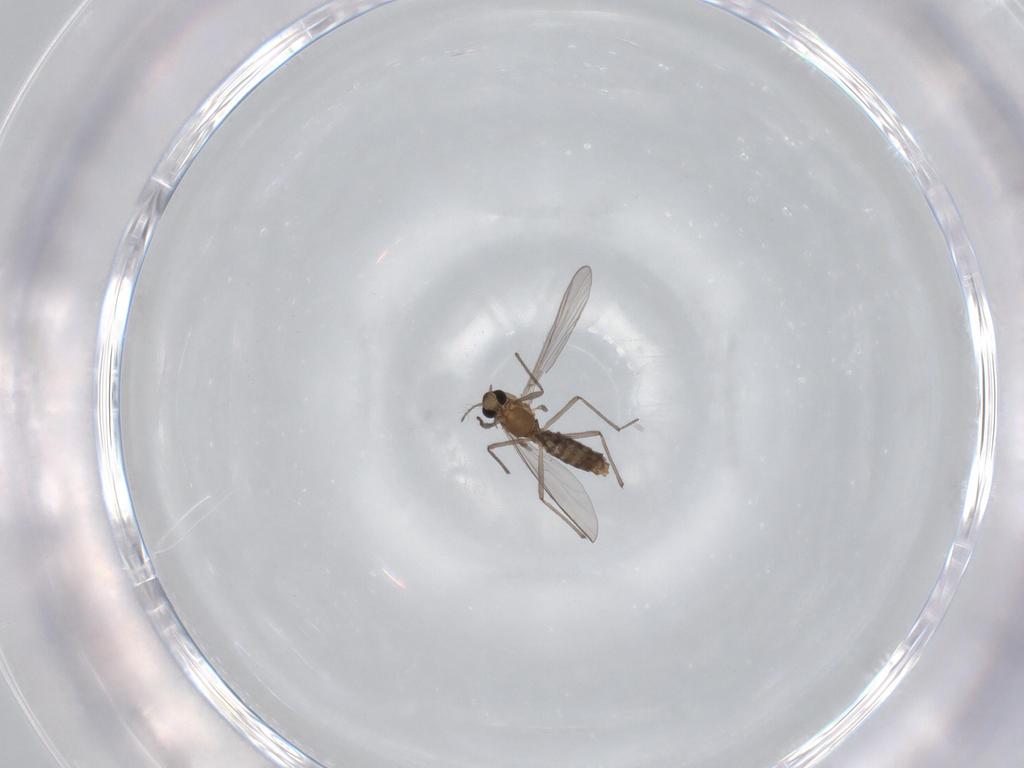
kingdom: Animalia
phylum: Arthropoda
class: Insecta
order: Diptera
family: Chironomidae
